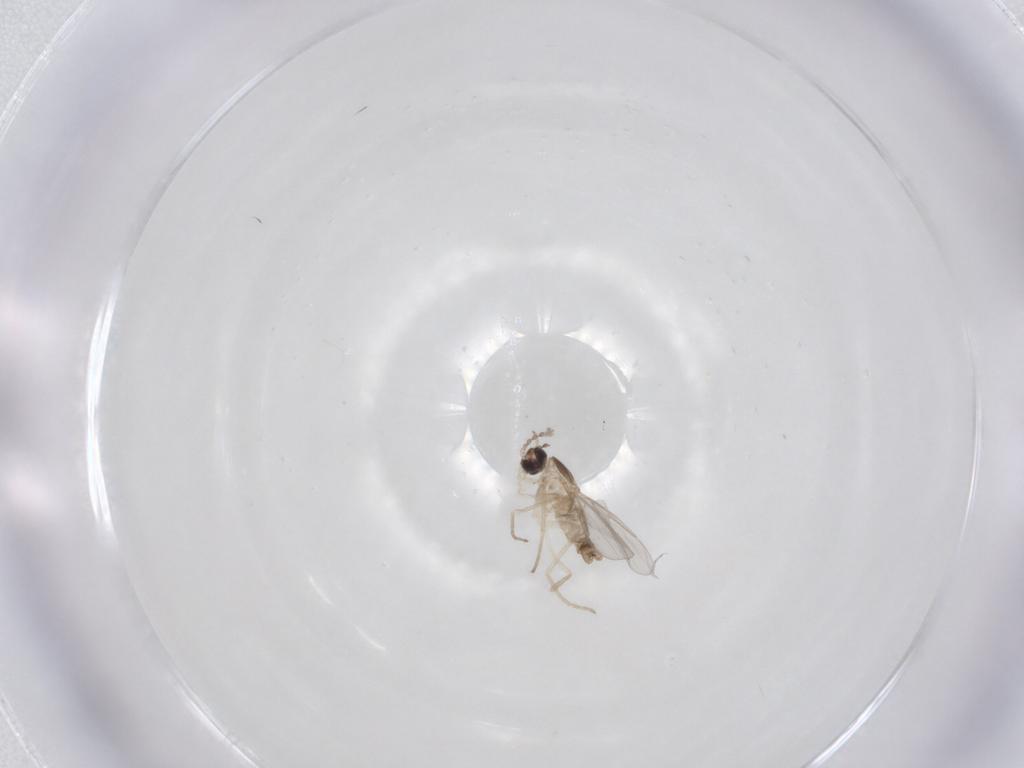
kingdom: Animalia
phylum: Arthropoda
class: Insecta
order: Diptera
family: Cecidomyiidae
